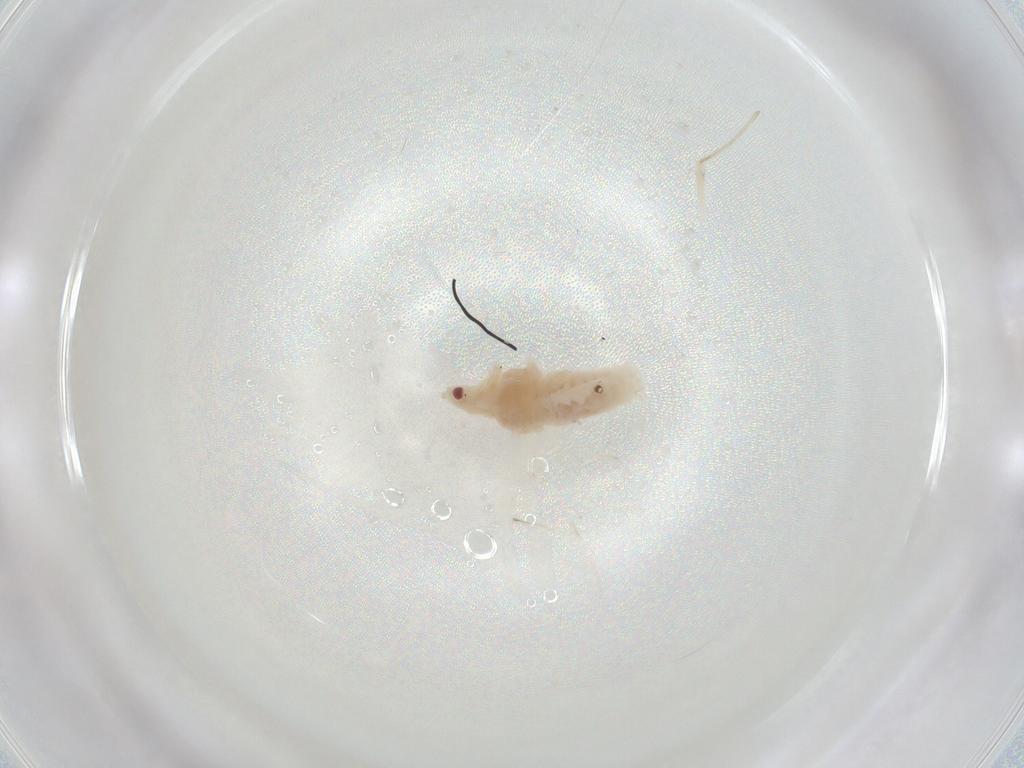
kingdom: Animalia
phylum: Arthropoda
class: Insecta
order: Hemiptera
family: Aphididae
